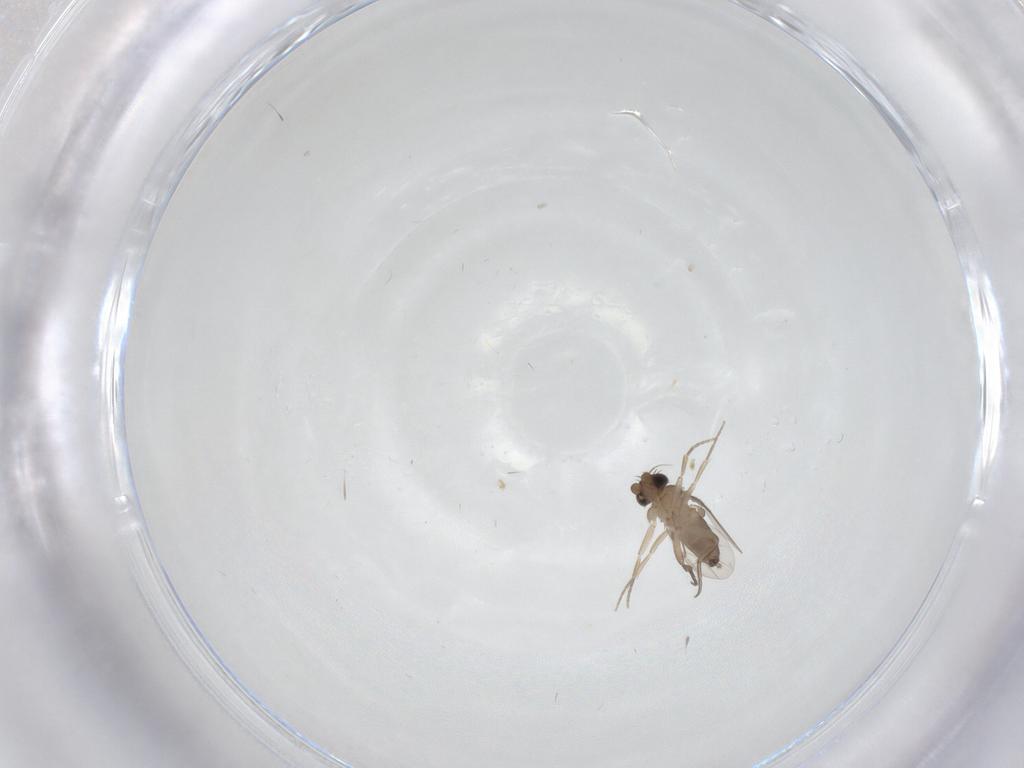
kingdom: Animalia
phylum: Arthropoda
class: Insecta
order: Diptera
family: Phoridae
